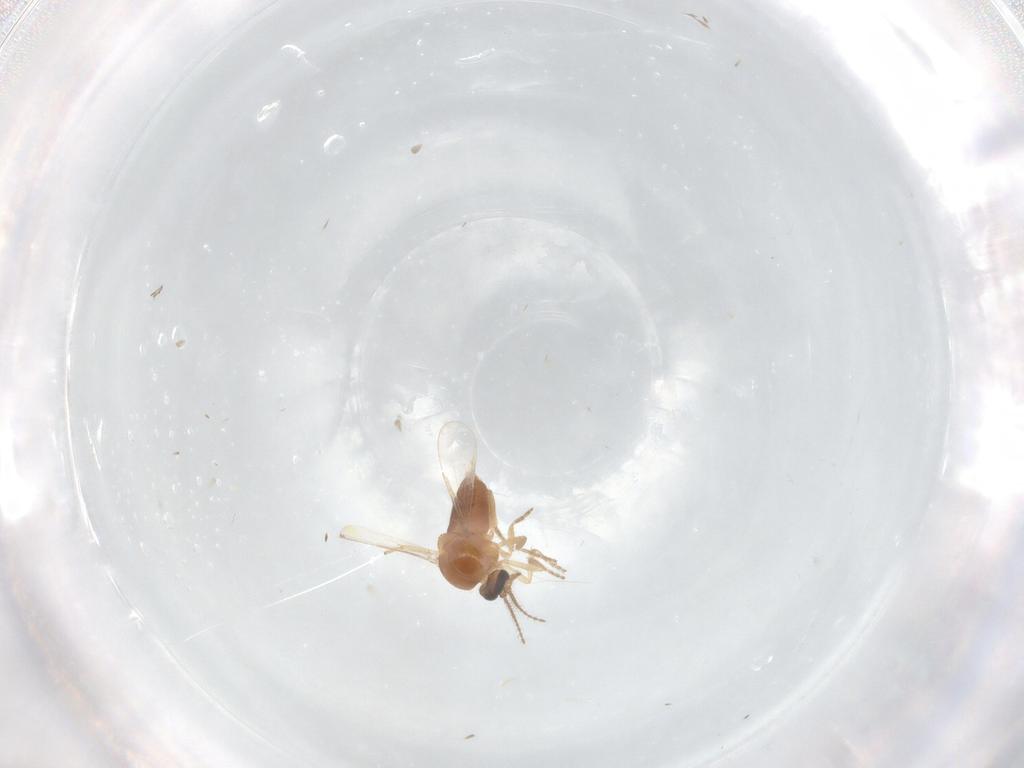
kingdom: Animalia
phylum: Arthropoda
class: Insecta
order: Diptera
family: Ceratopogonidae
